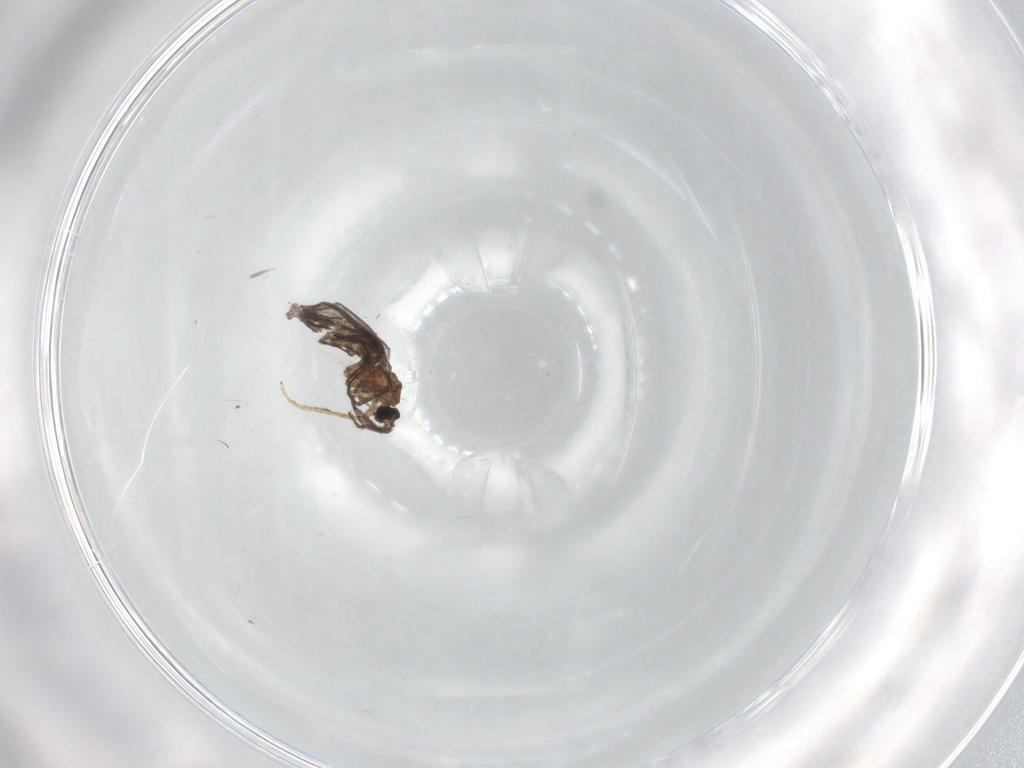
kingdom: Animalia
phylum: Arthropoda
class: Insecta
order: Diptera
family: Sciaridae
